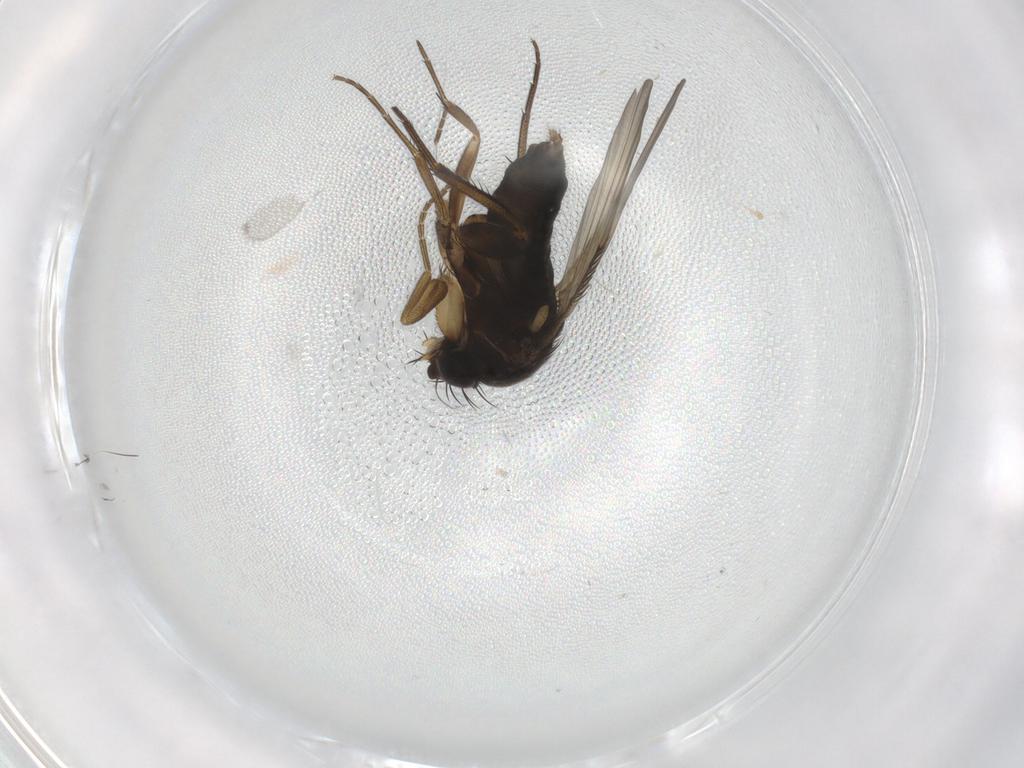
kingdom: Animalia
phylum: Arthropoda
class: Insecta
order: Diptera
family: Phoridae
